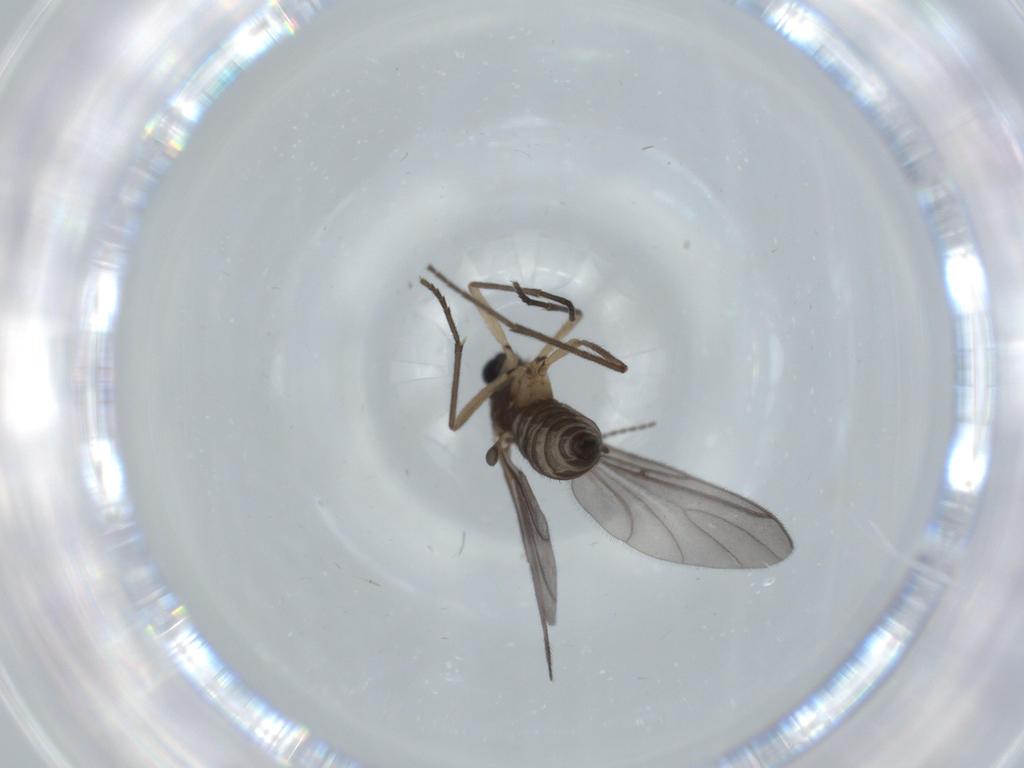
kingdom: Animalia
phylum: Arthropoda
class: Insecta
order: Diptera
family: Sciaridae
